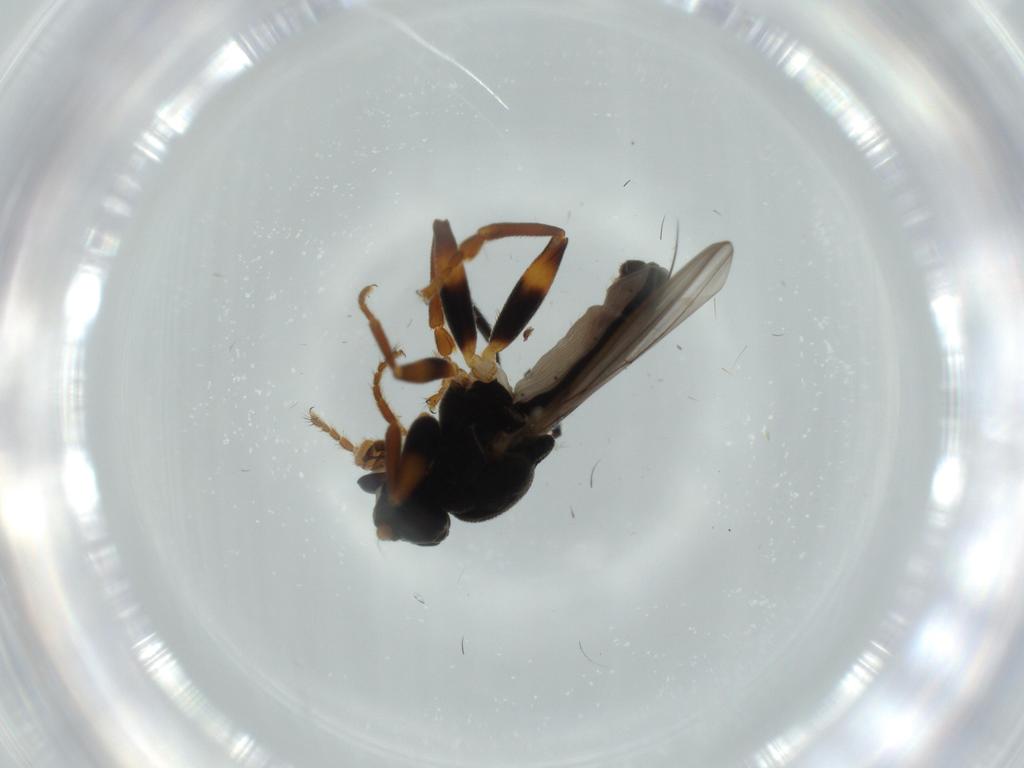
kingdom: Animalia
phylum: Arthropoda
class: Insecta
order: Diptera
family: Sphaeroceridae
